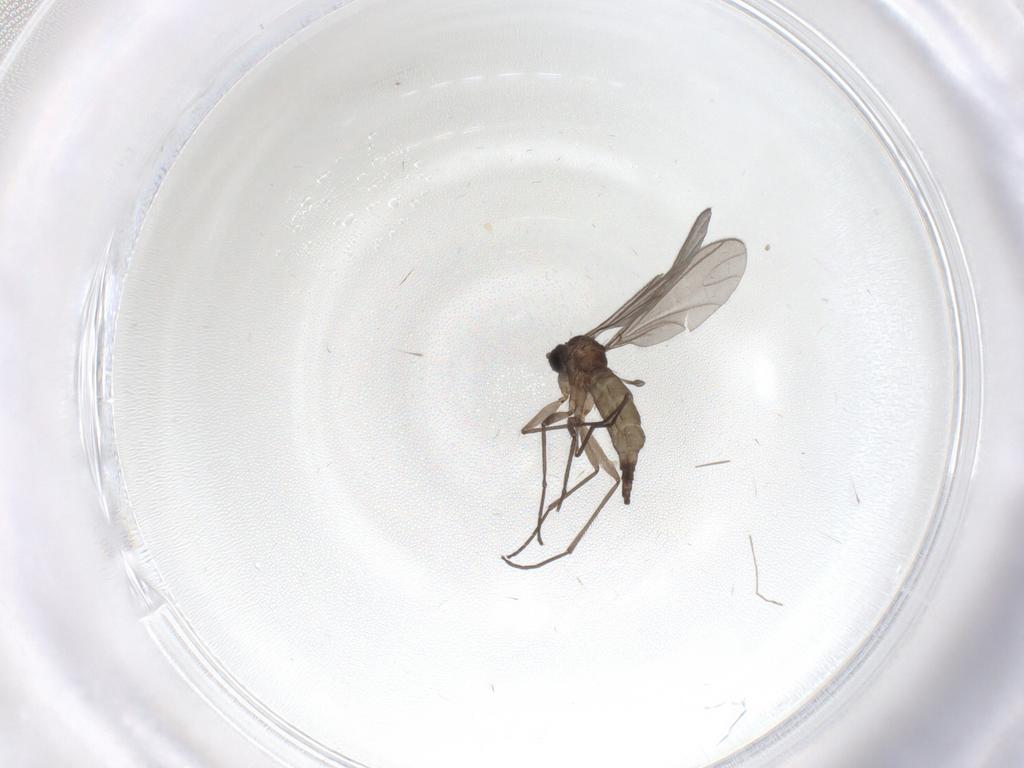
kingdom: Animalia
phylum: Arthropoda
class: Insecta
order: Diptera
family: Sciaridae
